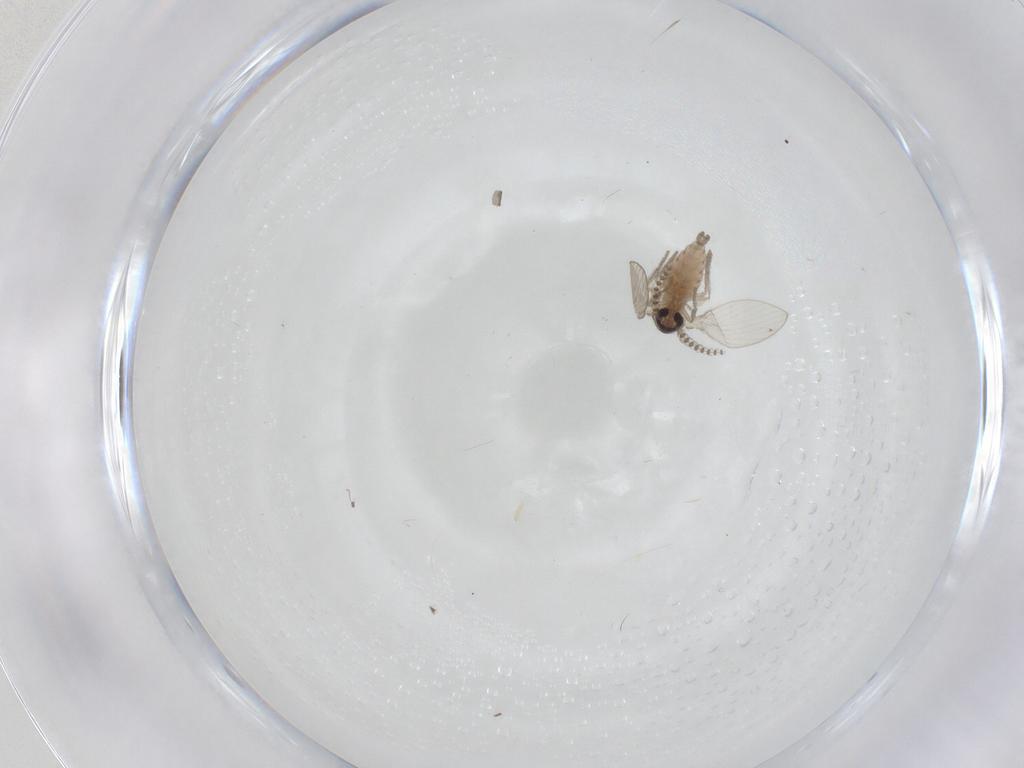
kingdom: Animalia
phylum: Arthropoda
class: Insecta
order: Diptera
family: Psychodidae
